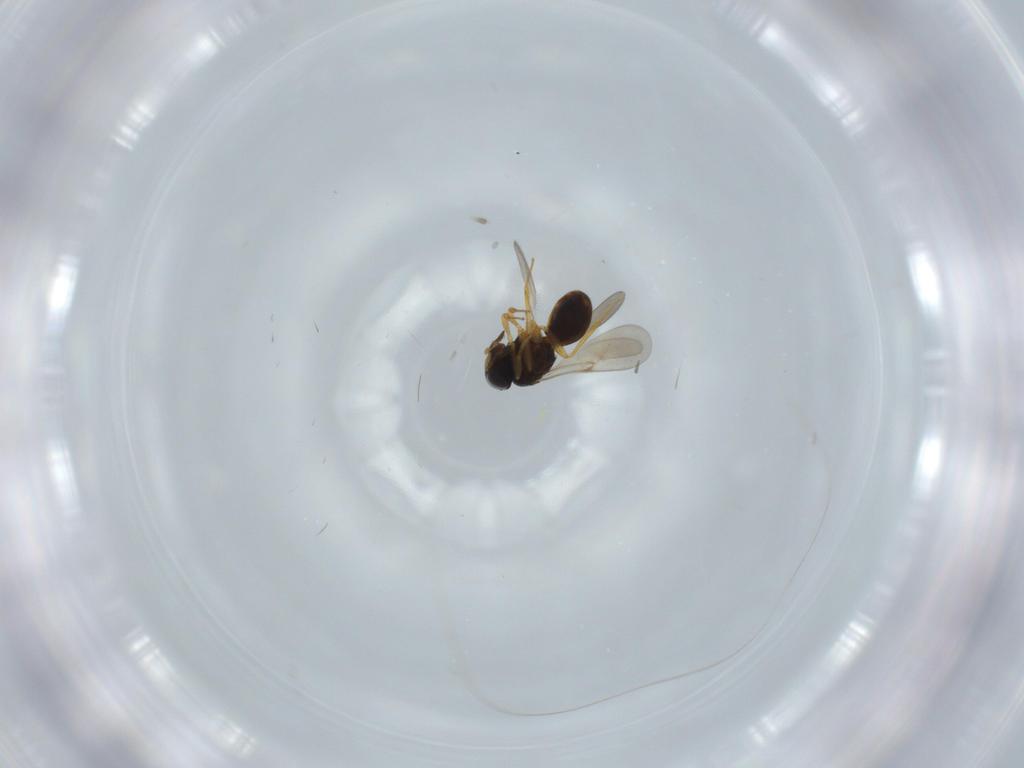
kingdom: Animalia
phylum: Arthropoda
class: Insecta
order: Hymenoptera
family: Scelionidae
